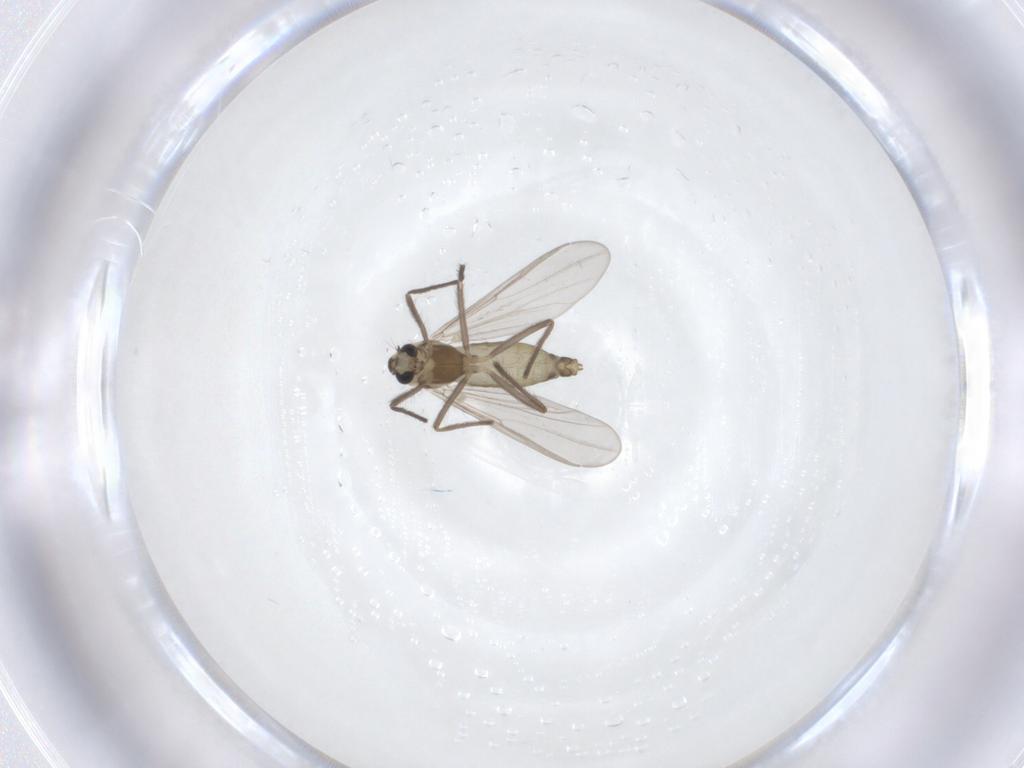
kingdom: Animalia
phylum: Arthropoda
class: Insecta
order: Diptera
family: Chironomidae
